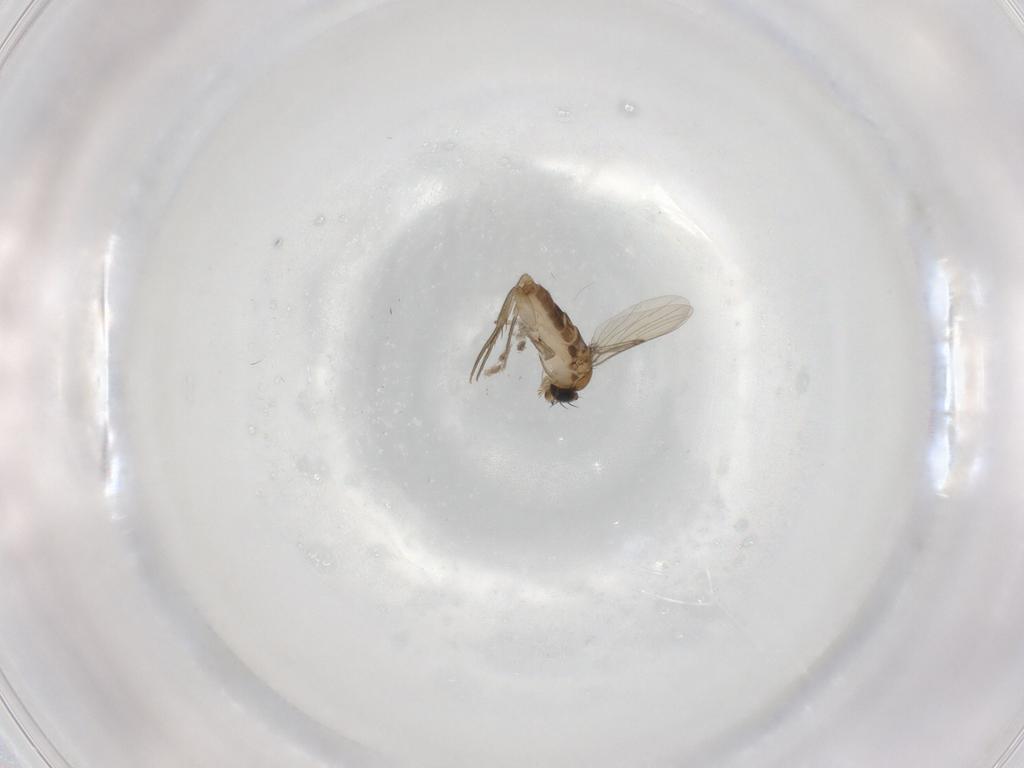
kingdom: Animalia
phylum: Arthropoda
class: Insecta
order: Diptera
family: Phoridae
